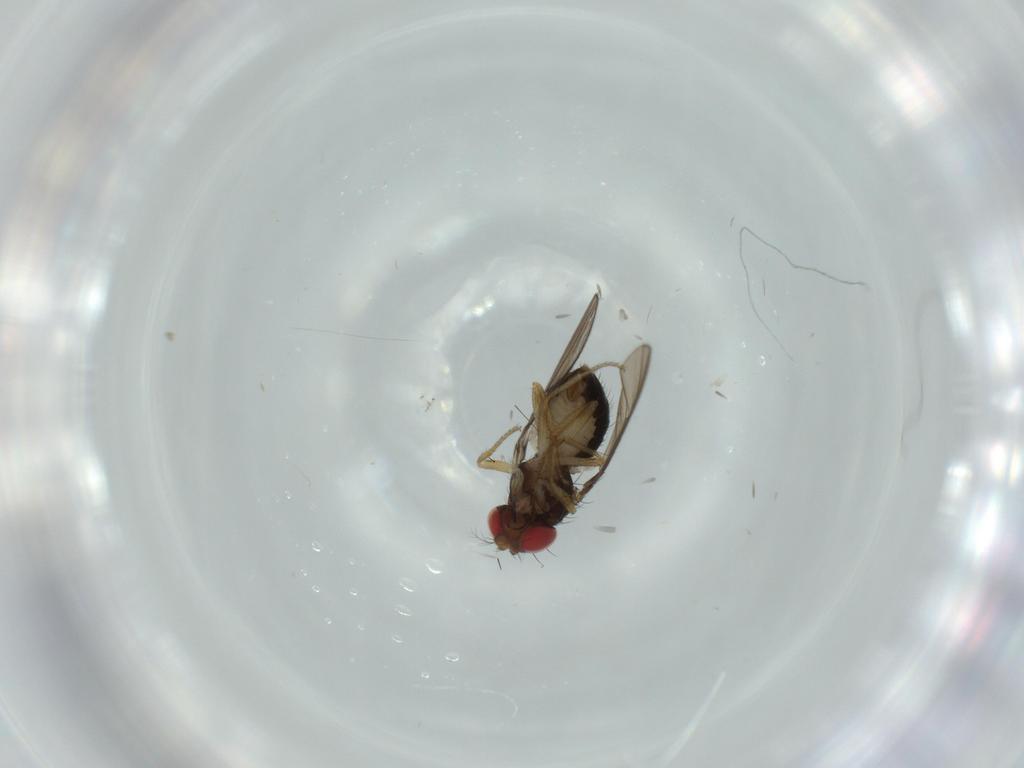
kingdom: Animalia
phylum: Arthropoda
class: Insecta
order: Diptera
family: Drosophilidae
